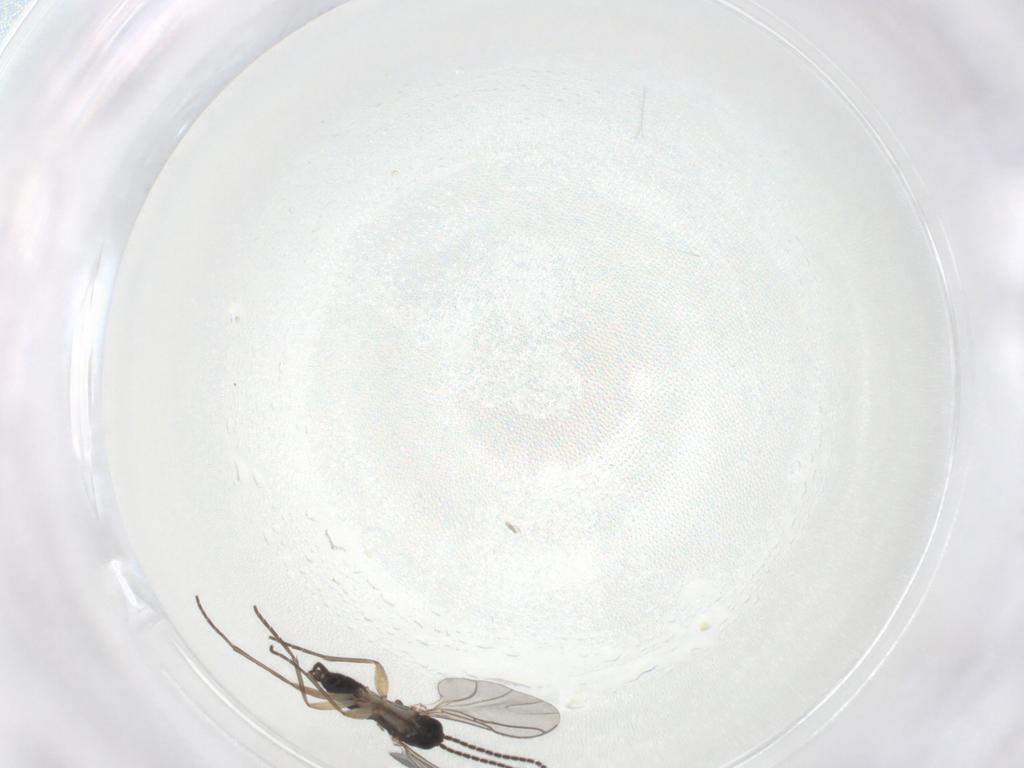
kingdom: Animalia
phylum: Arthropoda
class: Insecta
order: Diptera
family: Sciaridae
